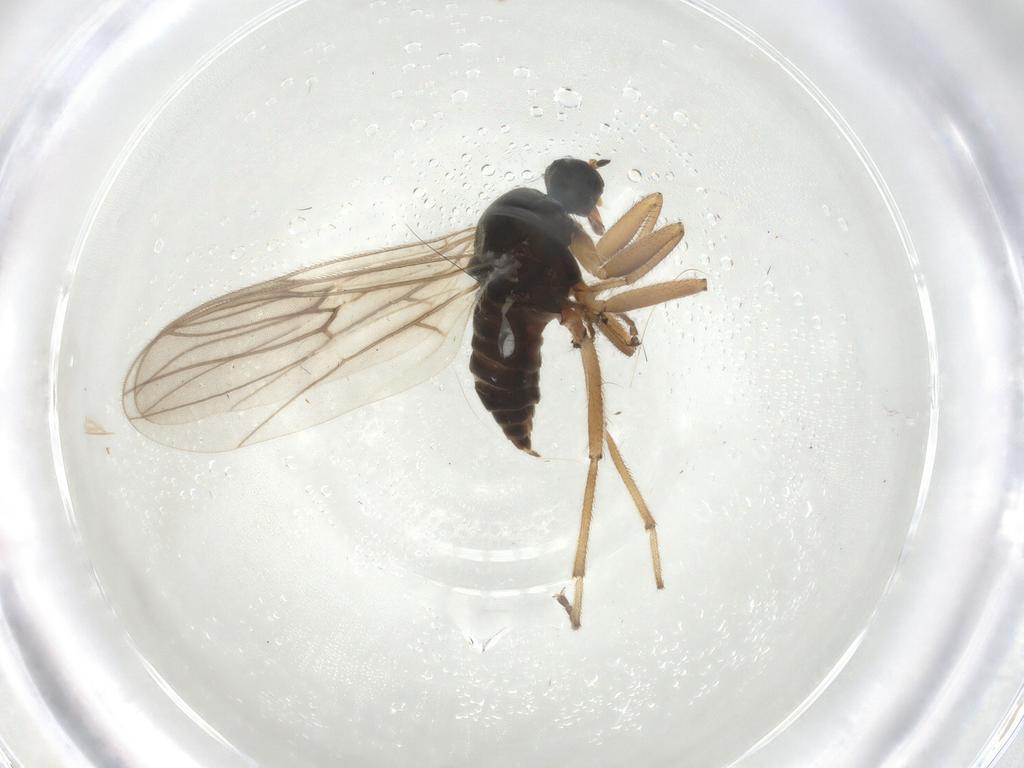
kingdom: Animalia
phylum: Arthropoda
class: Insecta
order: Diptera
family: Hybotidae
